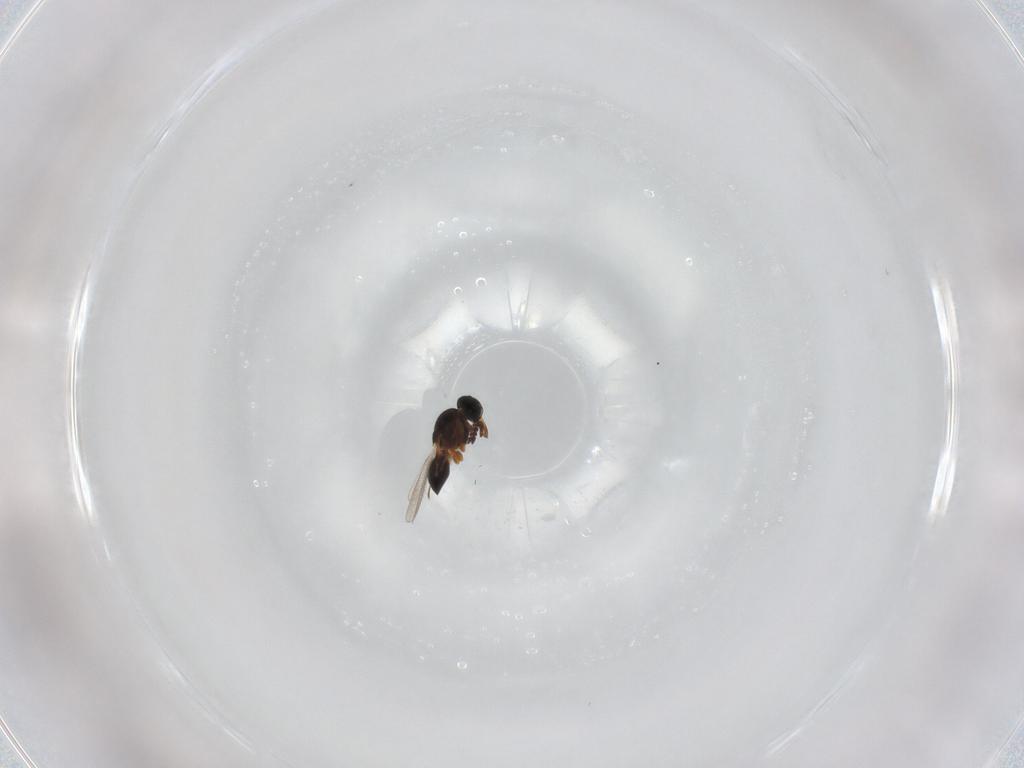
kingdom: Animalia
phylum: Arthropoda
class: Insecta
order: Hymenoptera
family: Platygastridae
